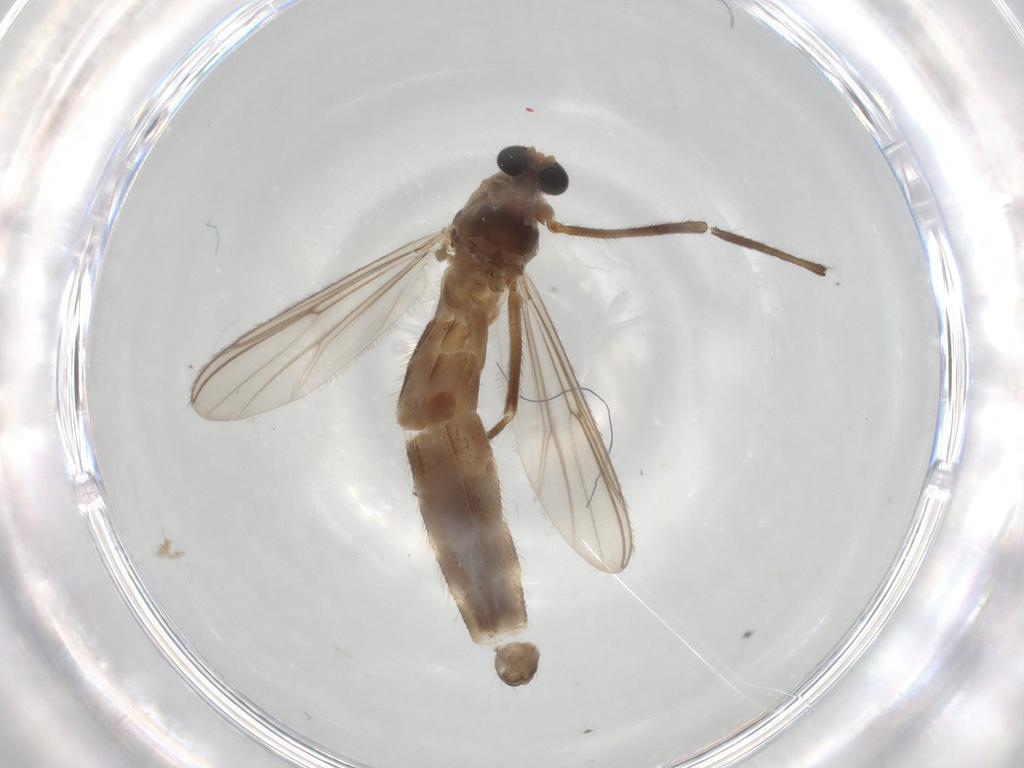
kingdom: Animalia
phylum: Arthropoda
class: Insecta
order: Diptera
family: Chironomidae
